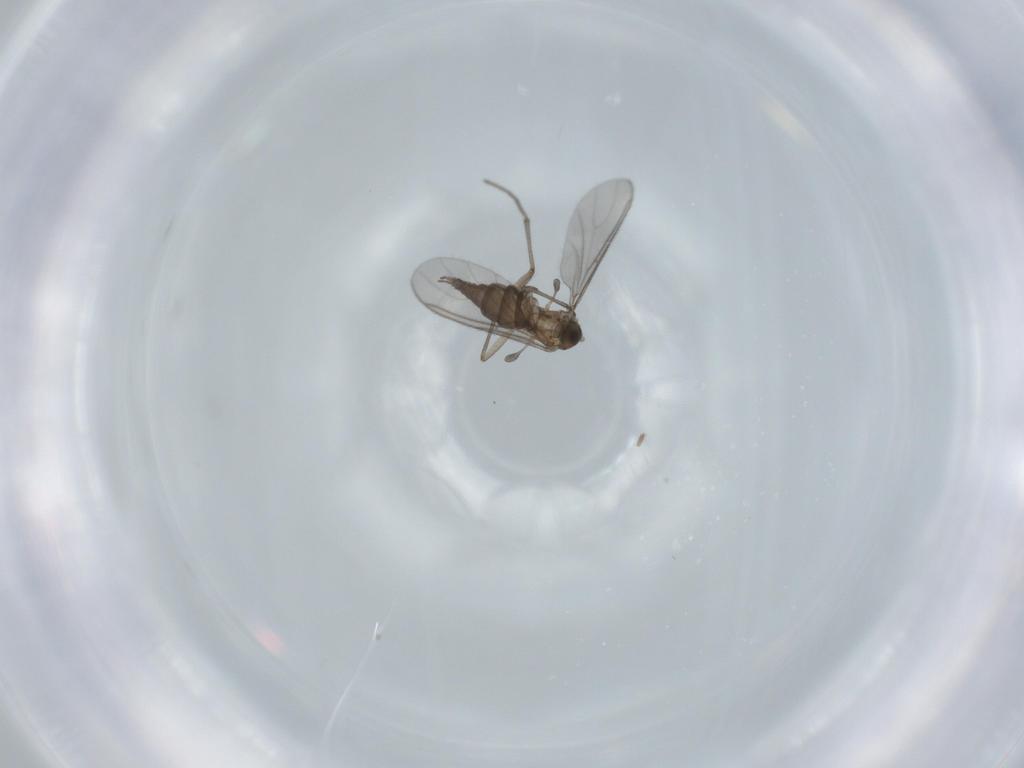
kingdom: Animalia
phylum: Arthropoda
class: Insecta
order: Diptera
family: Sciaridae
